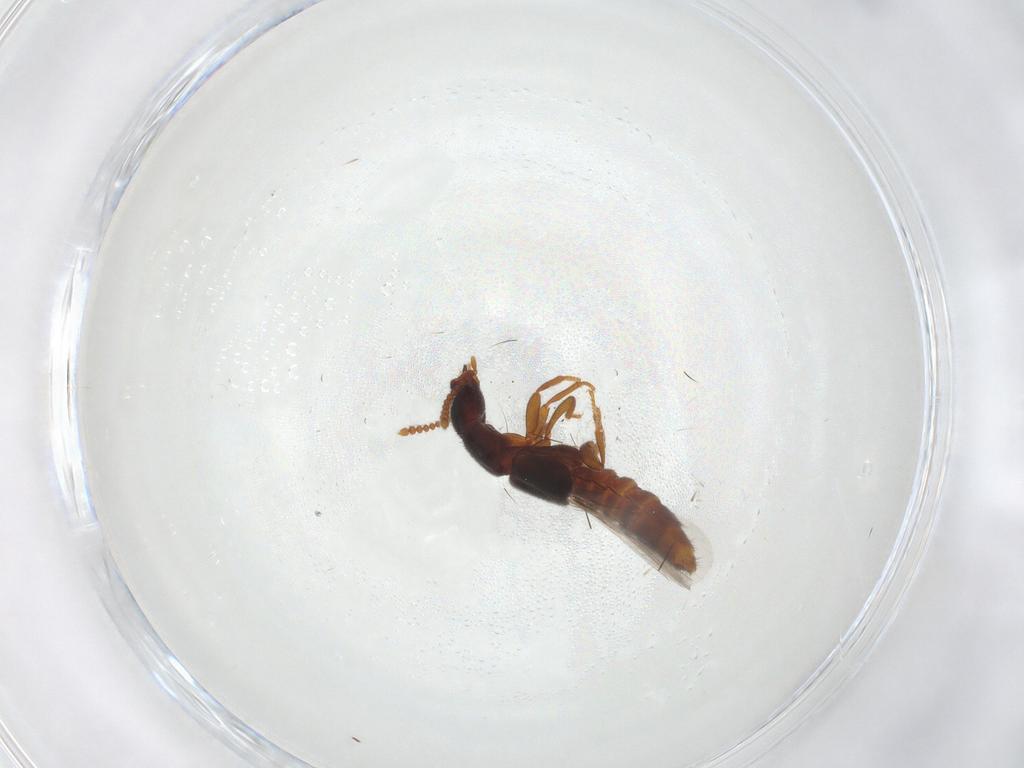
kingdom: Animalia
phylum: Arthropoda
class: Insecta
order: Coleoptera
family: Staphylinidae
